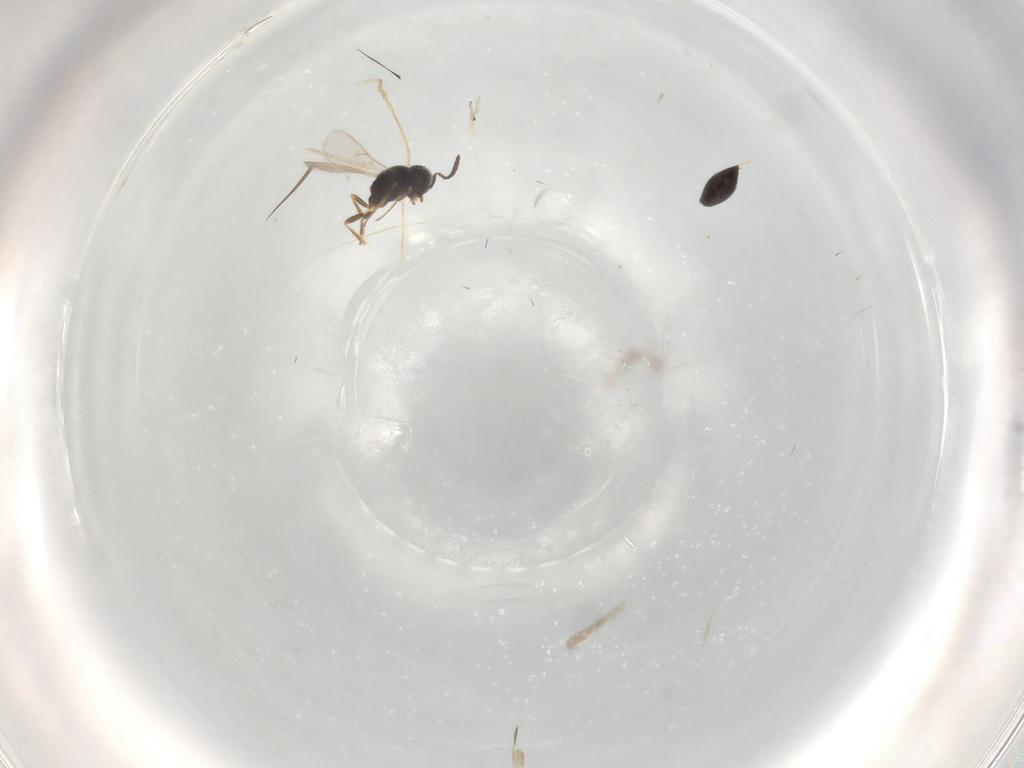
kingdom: Animalia
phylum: Arthropoda
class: Insecta
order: Hymenoptera
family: Scelionidae
